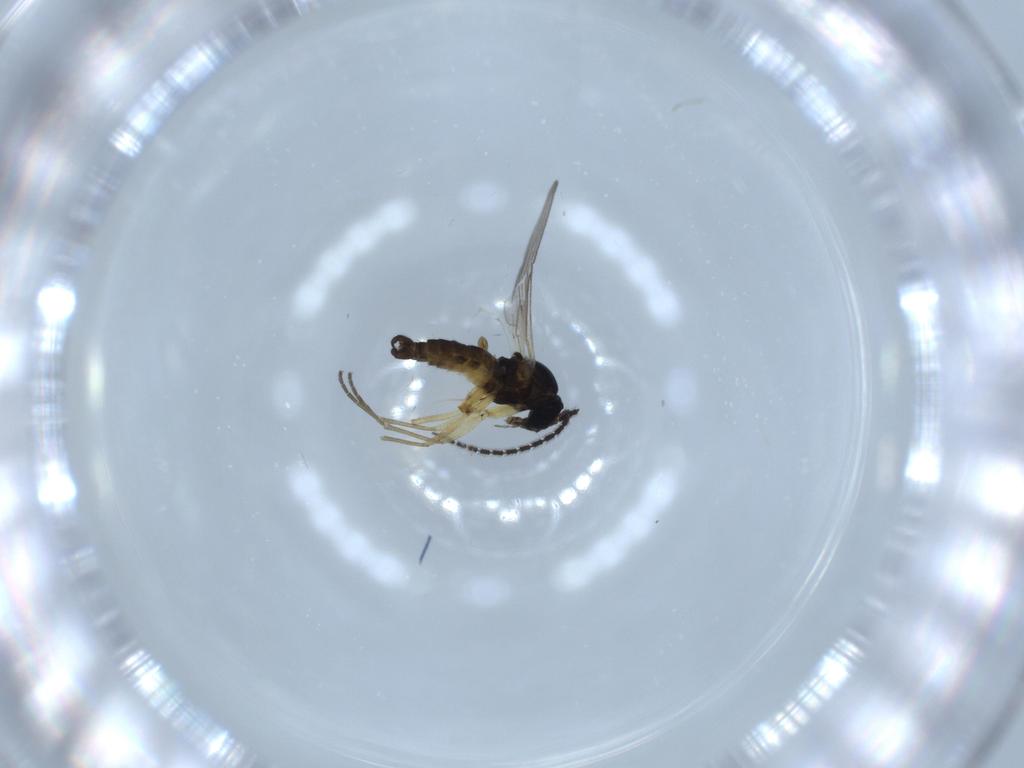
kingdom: Animalia
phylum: Arthropoda
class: Insecta
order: Diptera
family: Sciaridae
